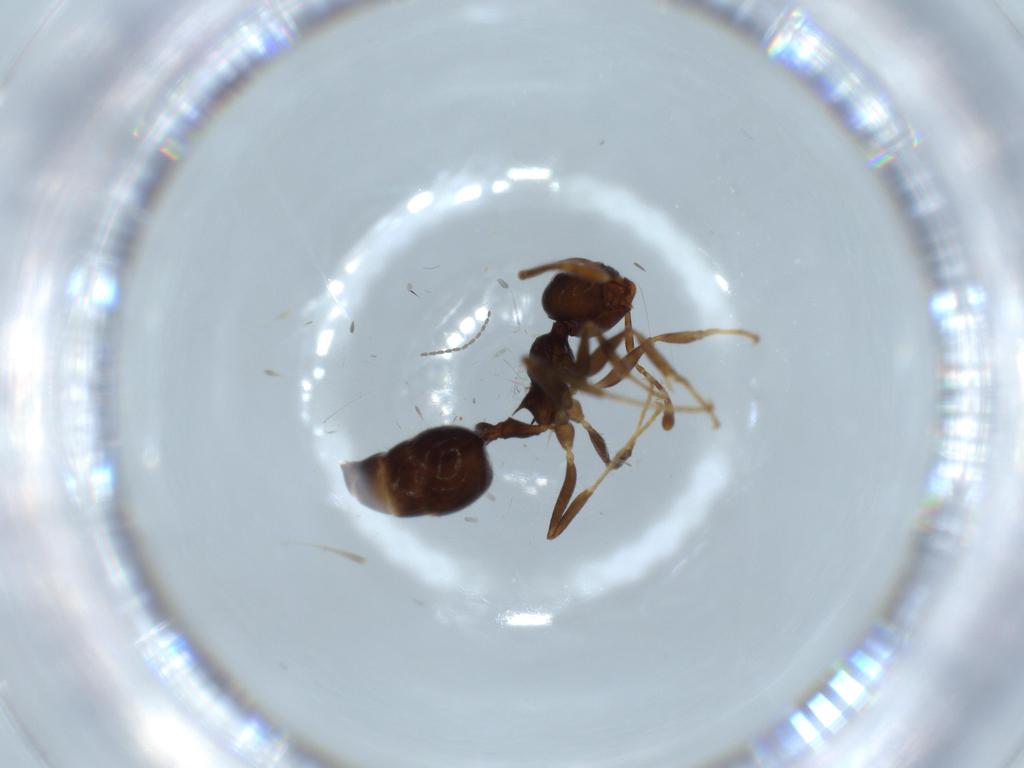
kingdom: Animalia
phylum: Arthropoda
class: Insecta
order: Hymenoptera
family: Formicidae
